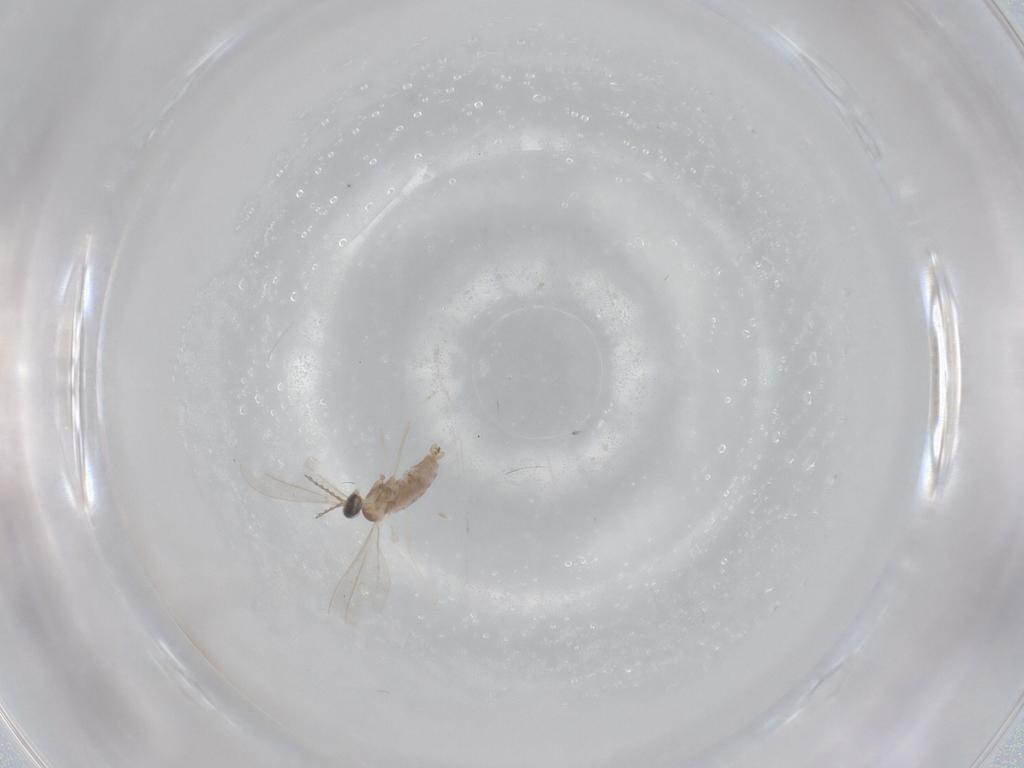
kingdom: Animalia
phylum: Arthropoda
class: Insecta
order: Diptera
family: Cecidomyiidae
